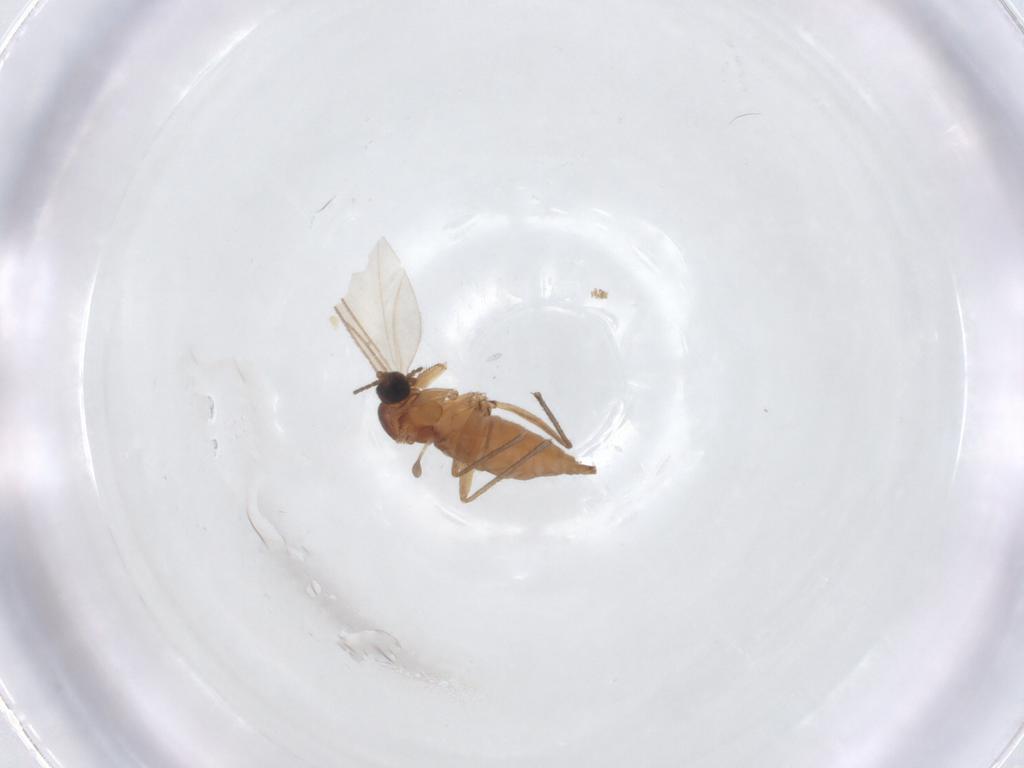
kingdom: Animalia
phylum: Arthropoda
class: Insecta
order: Diptera
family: Sciaridae
